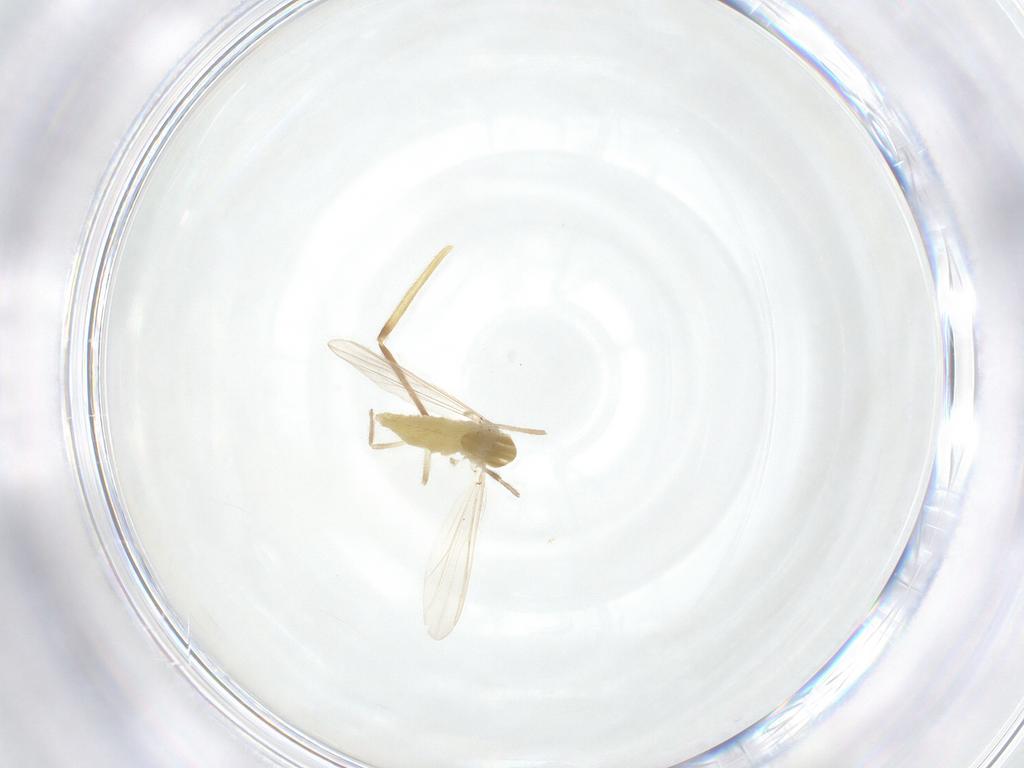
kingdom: Animalia
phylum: Arthropoda
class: Insecta
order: Diptera
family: Chironomidae
